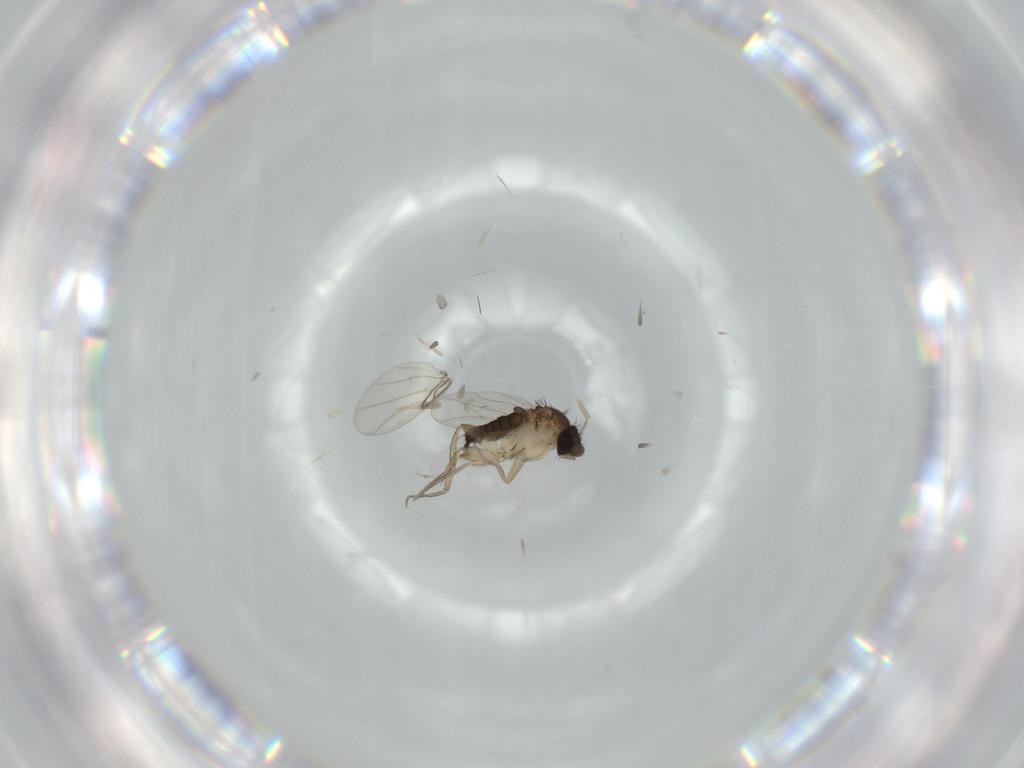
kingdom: Animalia
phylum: Arthropoda
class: Insecta
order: Diptera
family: Phoridae
